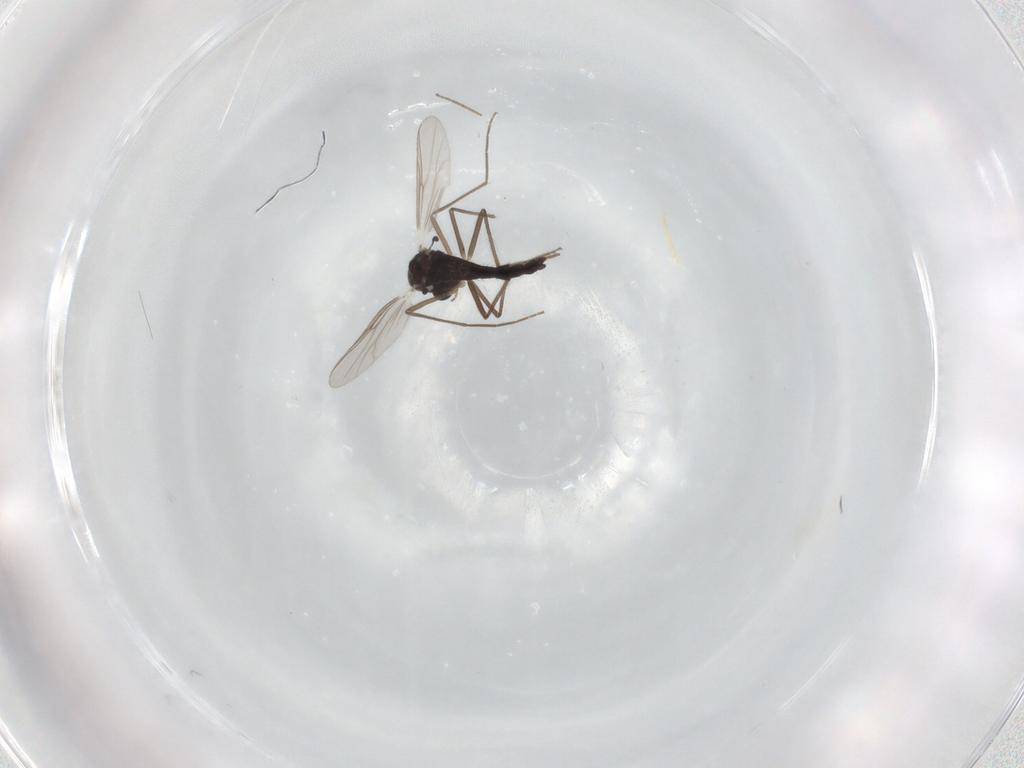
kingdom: Animalia
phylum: Arthropoda
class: Insecta
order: Diptera
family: Chironomidae
